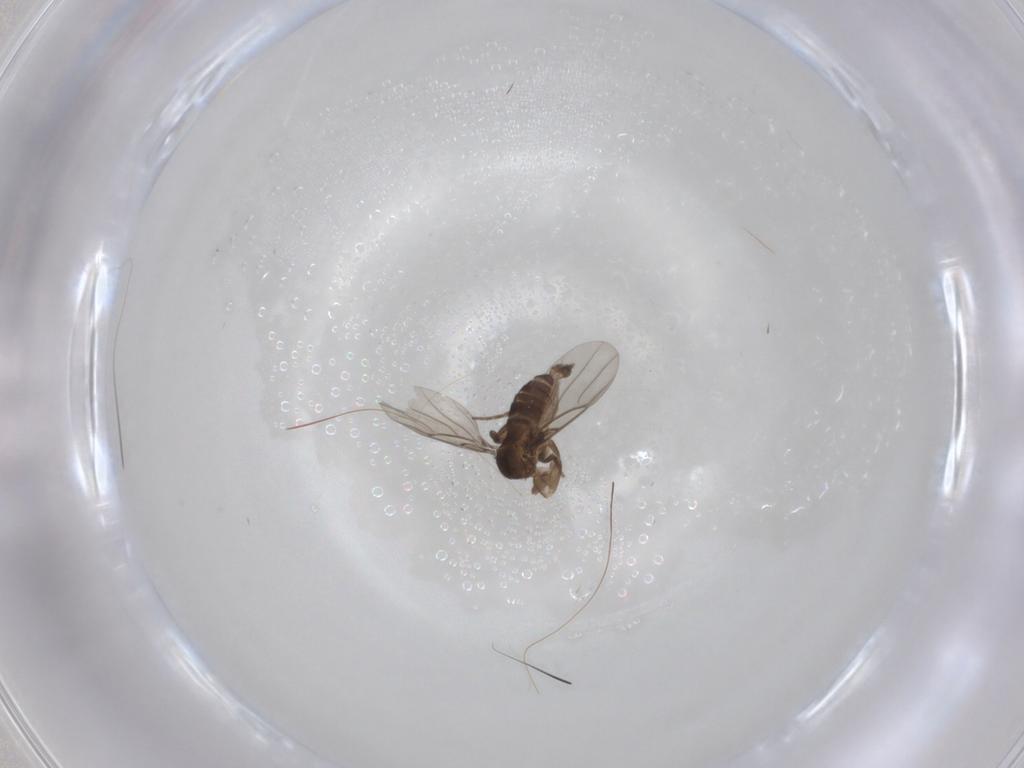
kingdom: Animalia
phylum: Arthropoda
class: Insecta
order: Diptera
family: Phoridae
